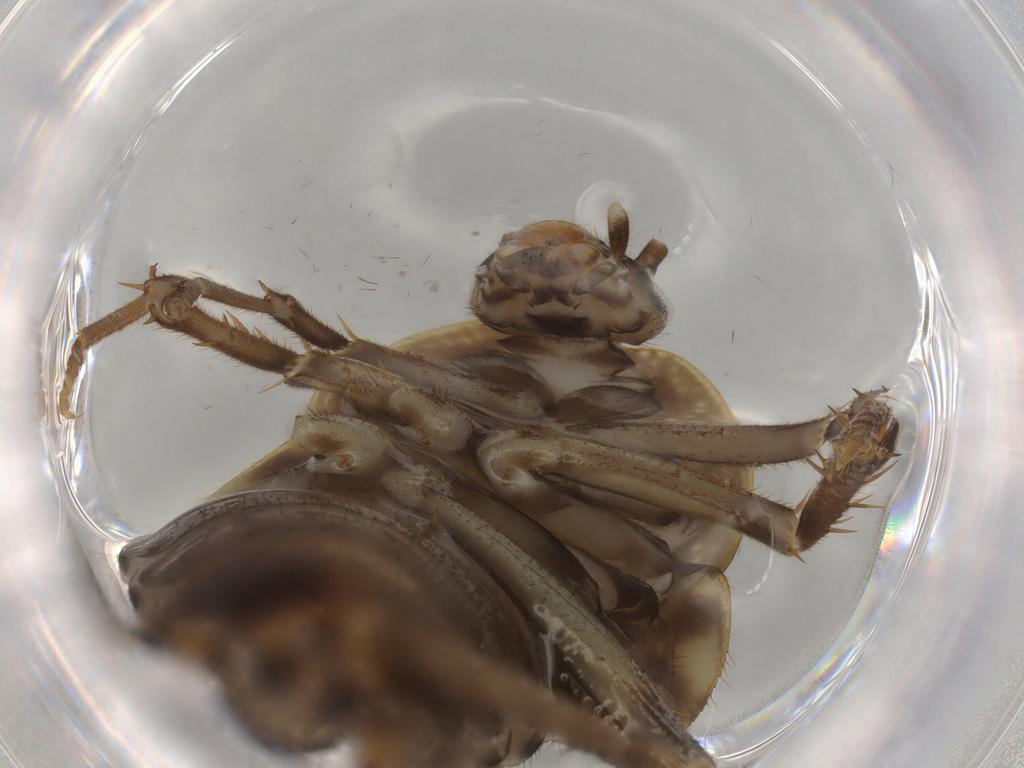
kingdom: Animalia
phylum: Arthropoda
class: Insecta
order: Blattodea
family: Ectobiidae
